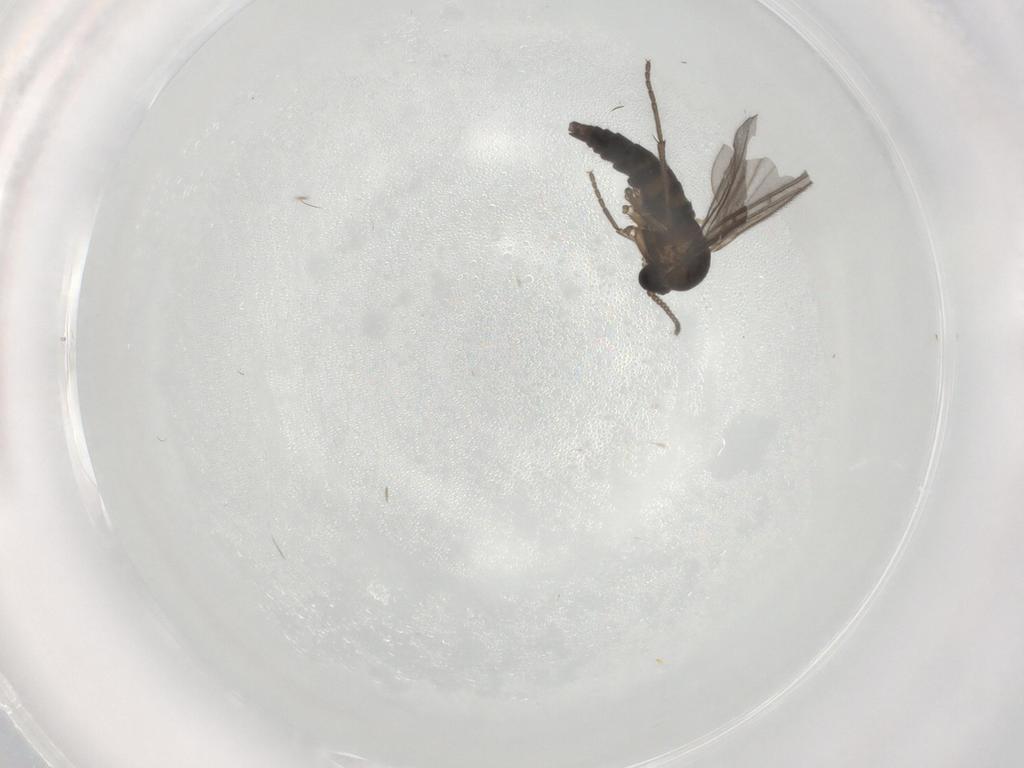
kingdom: Animalia
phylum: Arthropoda
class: Insecta
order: Diptera
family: Sciaridae
